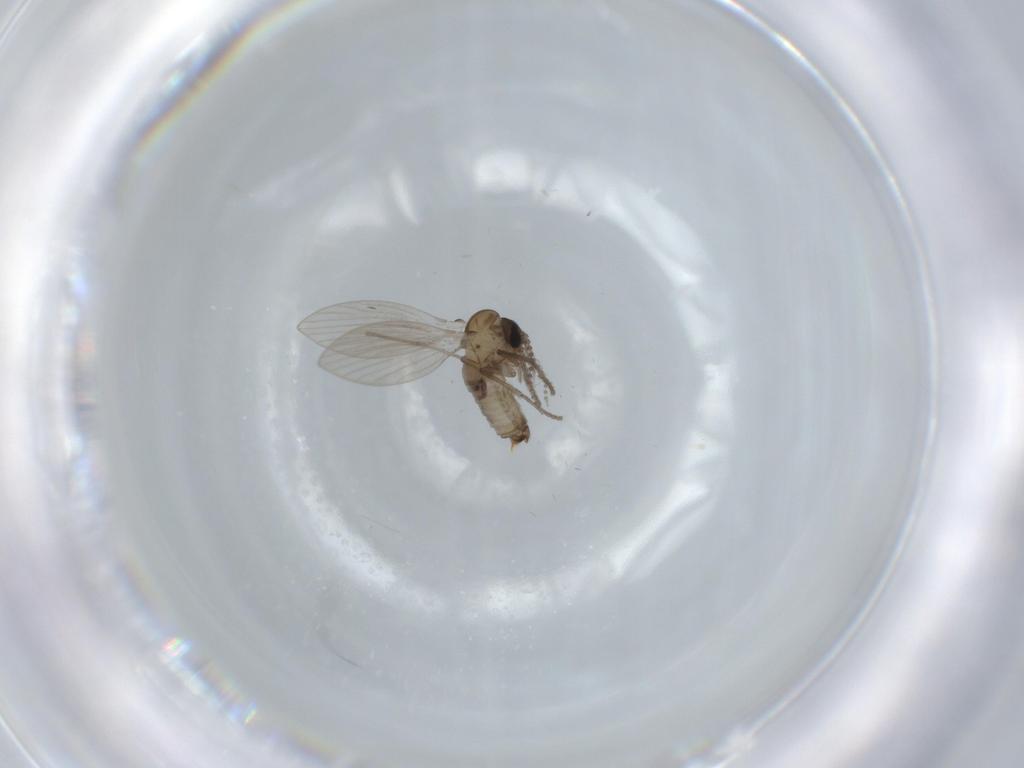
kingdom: Animalia
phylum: Arthropoda
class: Insecta
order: Diptera
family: Psychodidae
